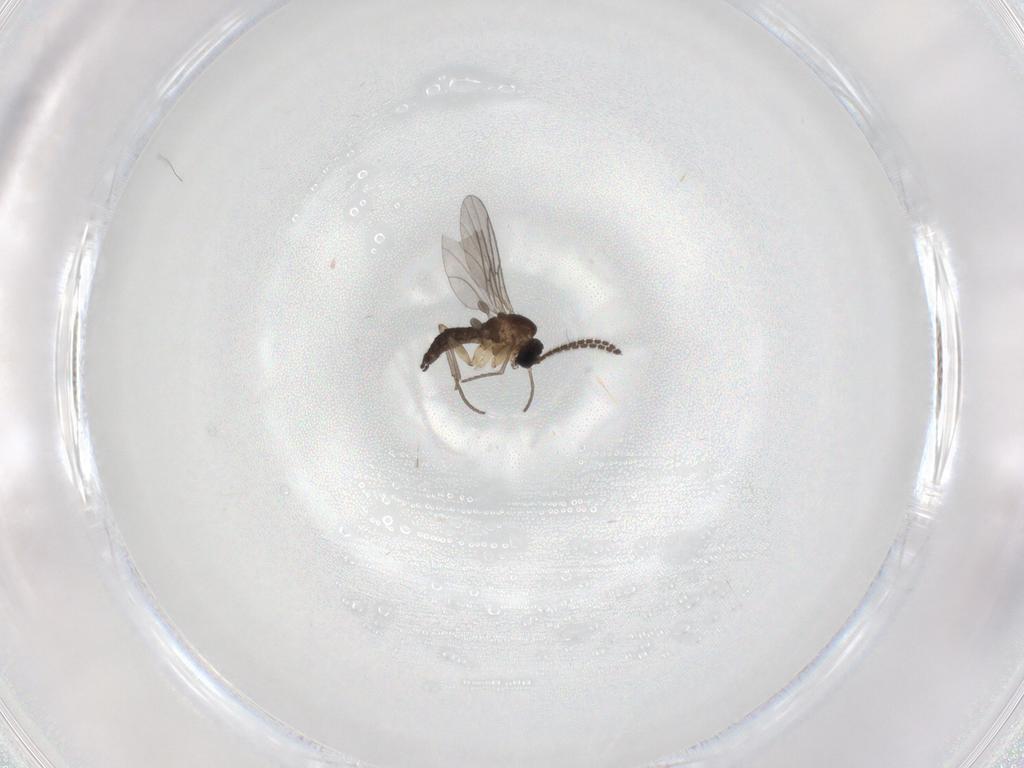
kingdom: Animalia
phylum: Arthropoda
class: Insecta
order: Diptera
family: Sciaridae
